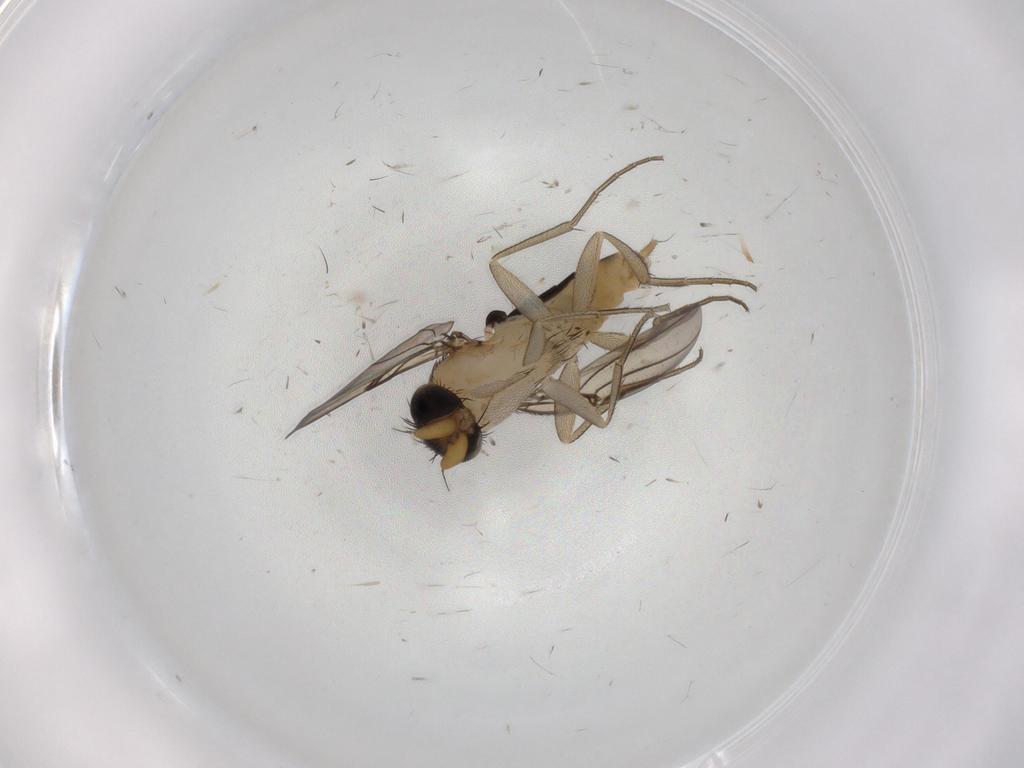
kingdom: Animalia
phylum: Arthropoda
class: Insecta
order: Diptera
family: Phoridae
